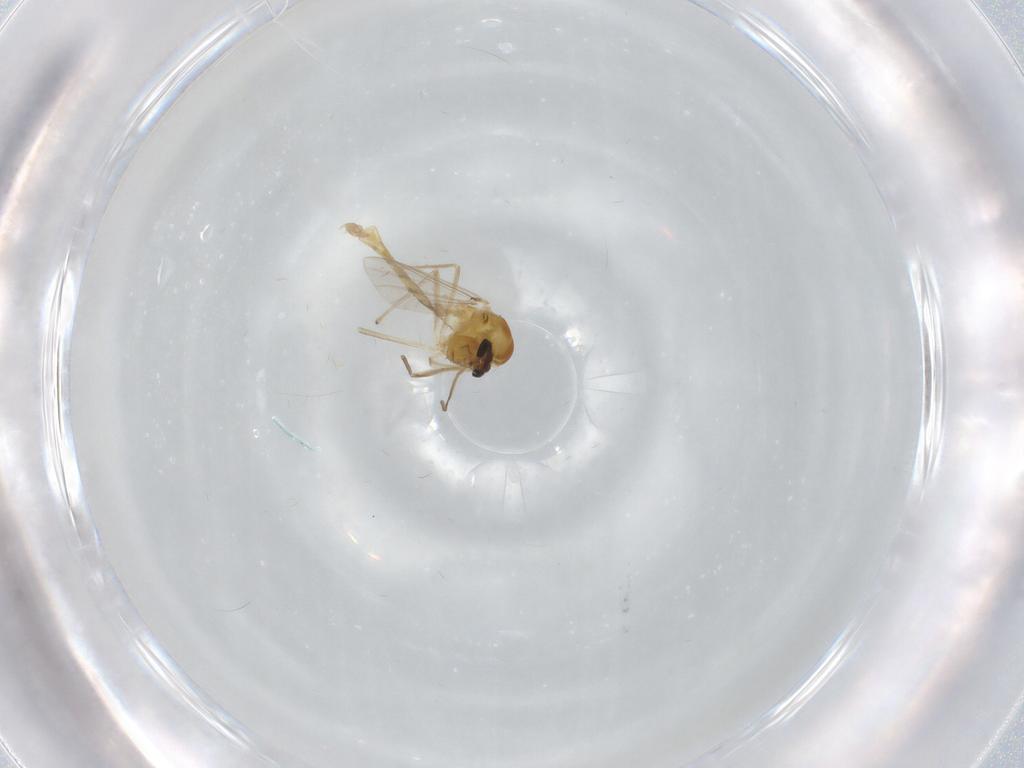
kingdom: Animalia
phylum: Arthropoda
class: Insecta
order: Diptera
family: Chironomidae
